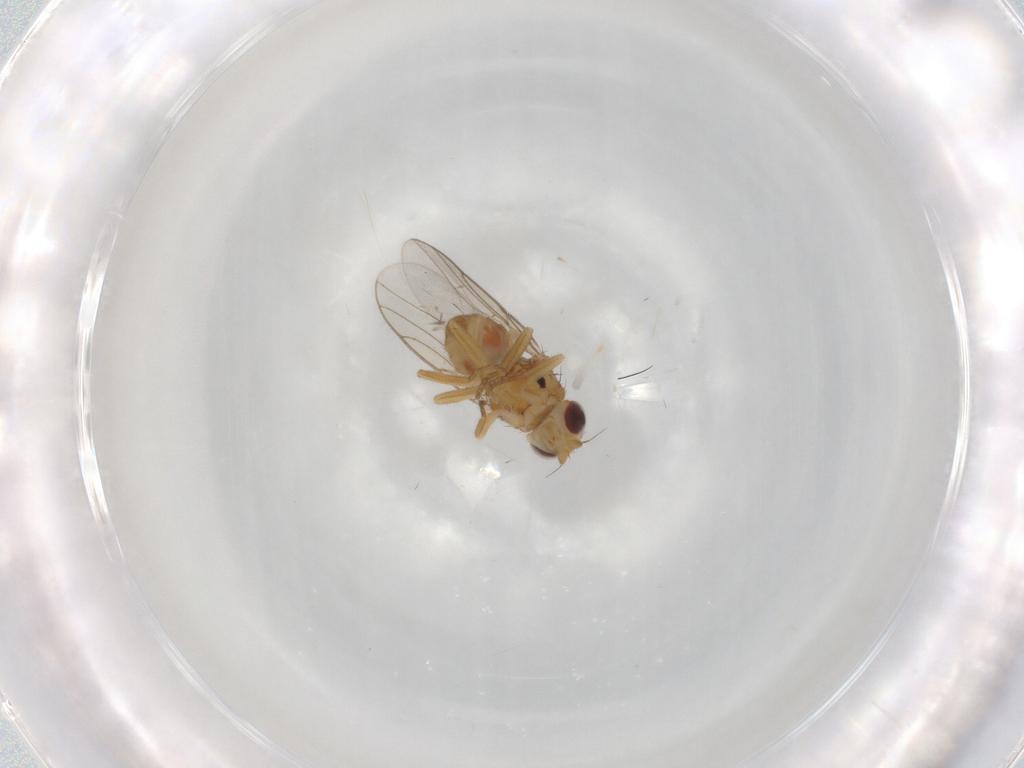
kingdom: Animalia
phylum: Arthropoda
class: Insecta
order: Diptera
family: Chloropidae
